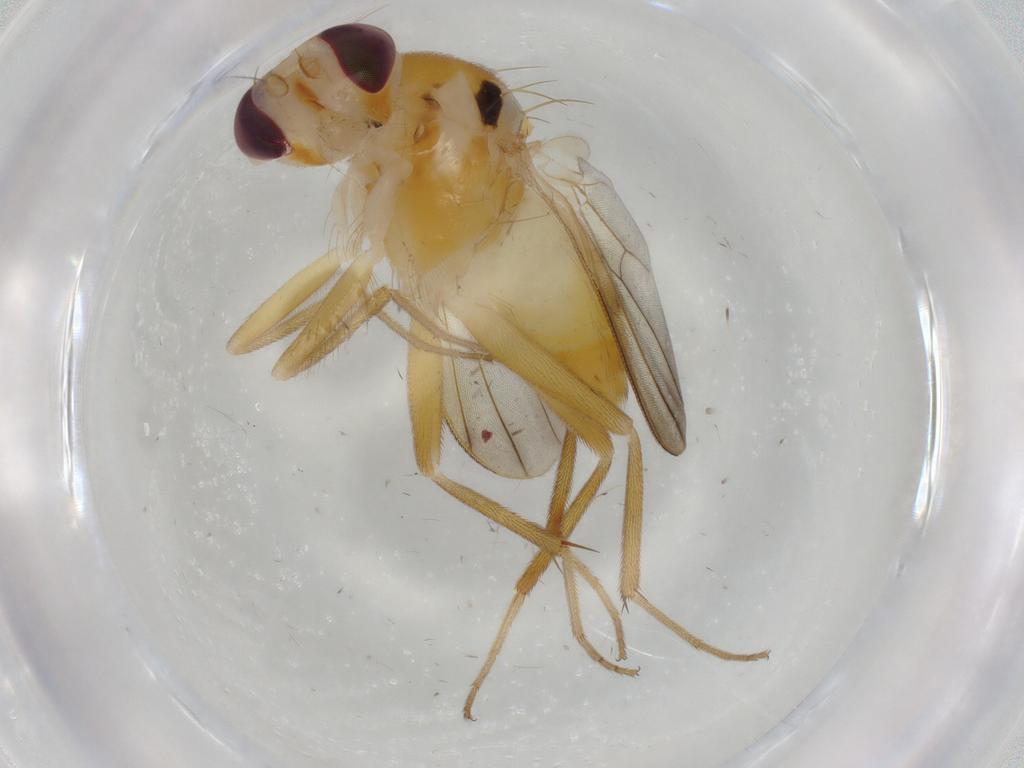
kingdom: Animalia
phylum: Arthropoda
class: Insecta
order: Diptera
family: Clusiidae
